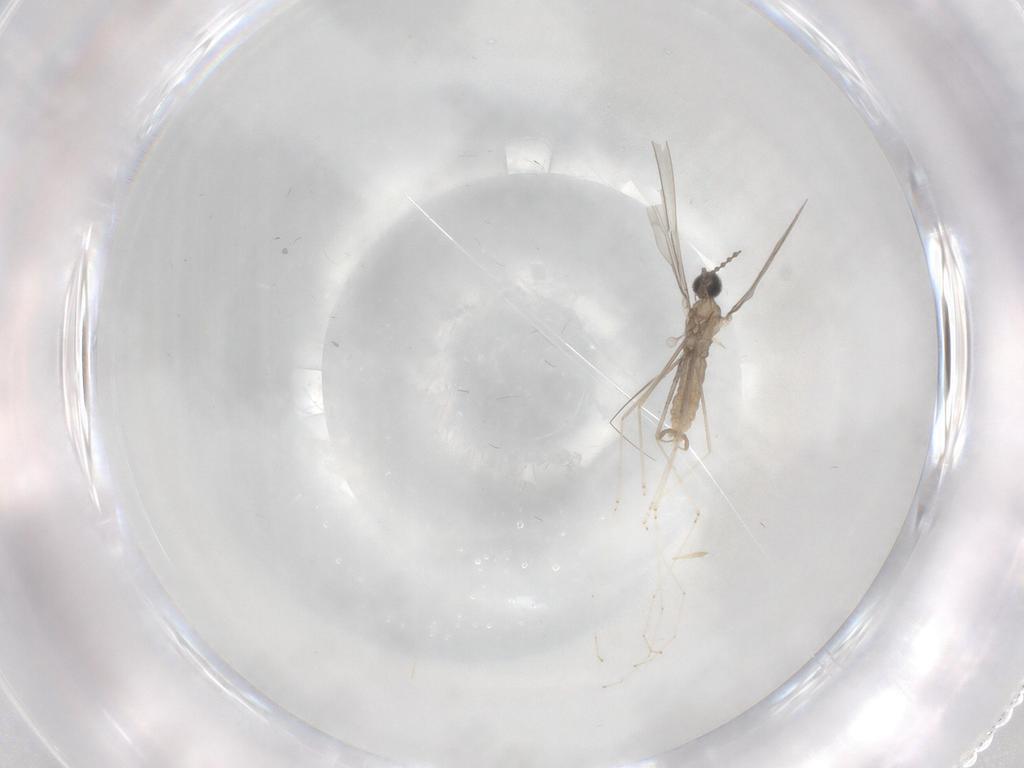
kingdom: Animalia
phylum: Arthropoda
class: Insecta
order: Diptera
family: Cecidomyiidae
